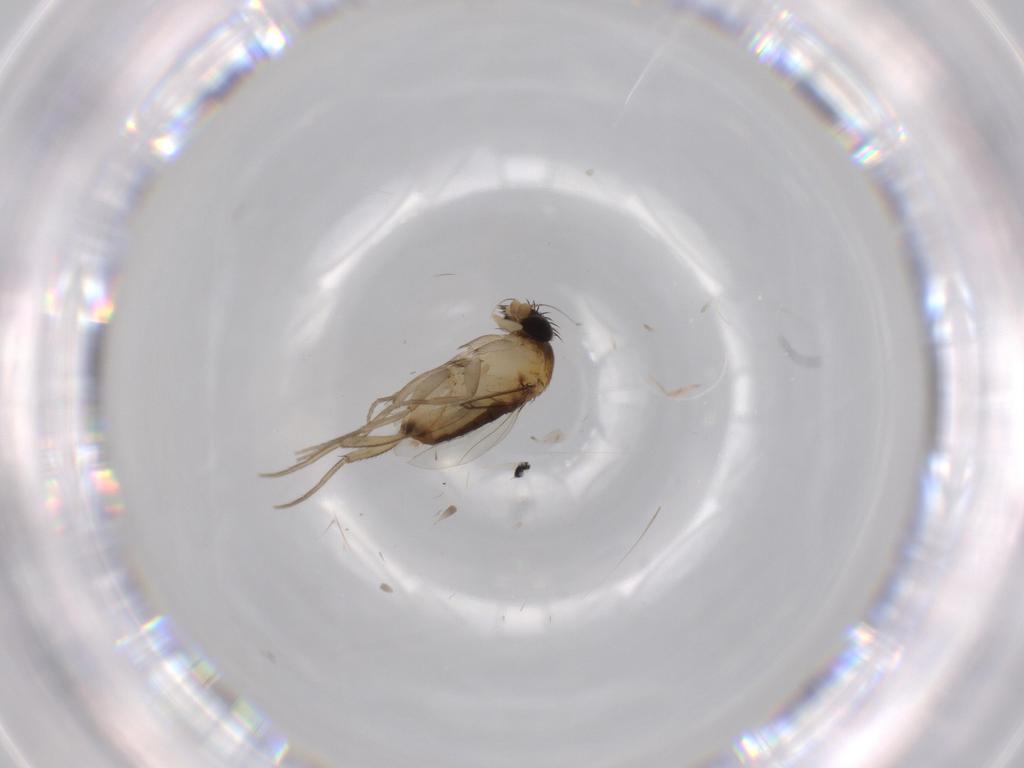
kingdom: Animalia
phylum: Arthropoda
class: Insecta
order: Diptera
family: Phoridae
